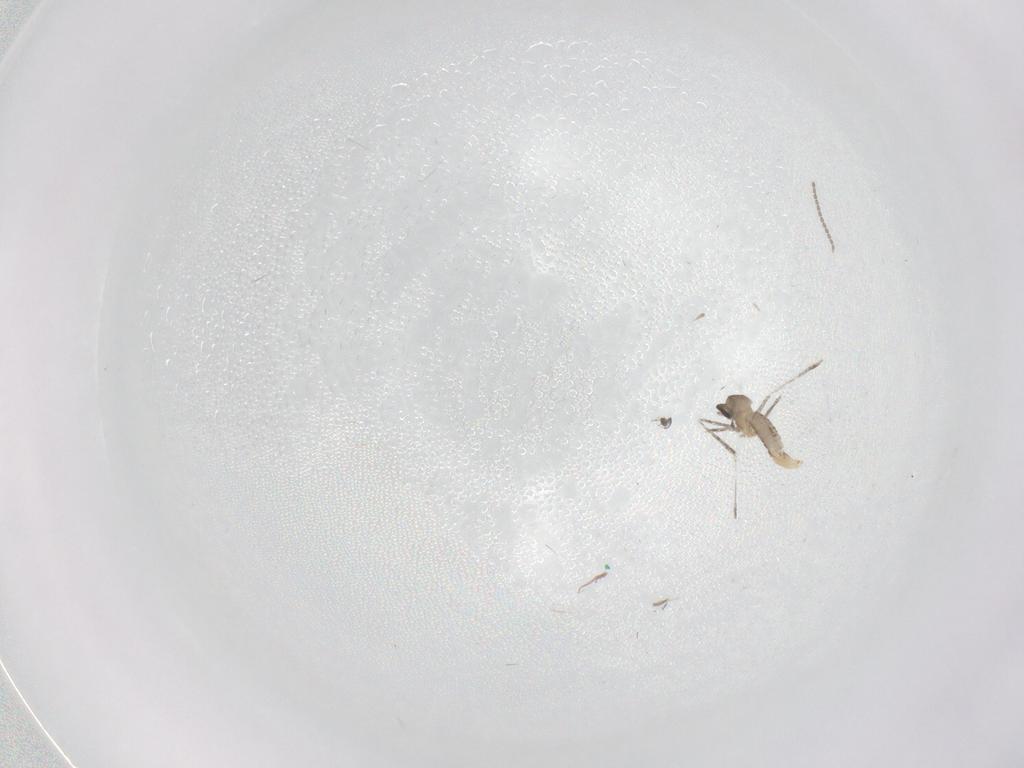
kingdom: Animalia
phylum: Arthropoda
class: Insecta
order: Diptera
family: Cecidomyiidae
